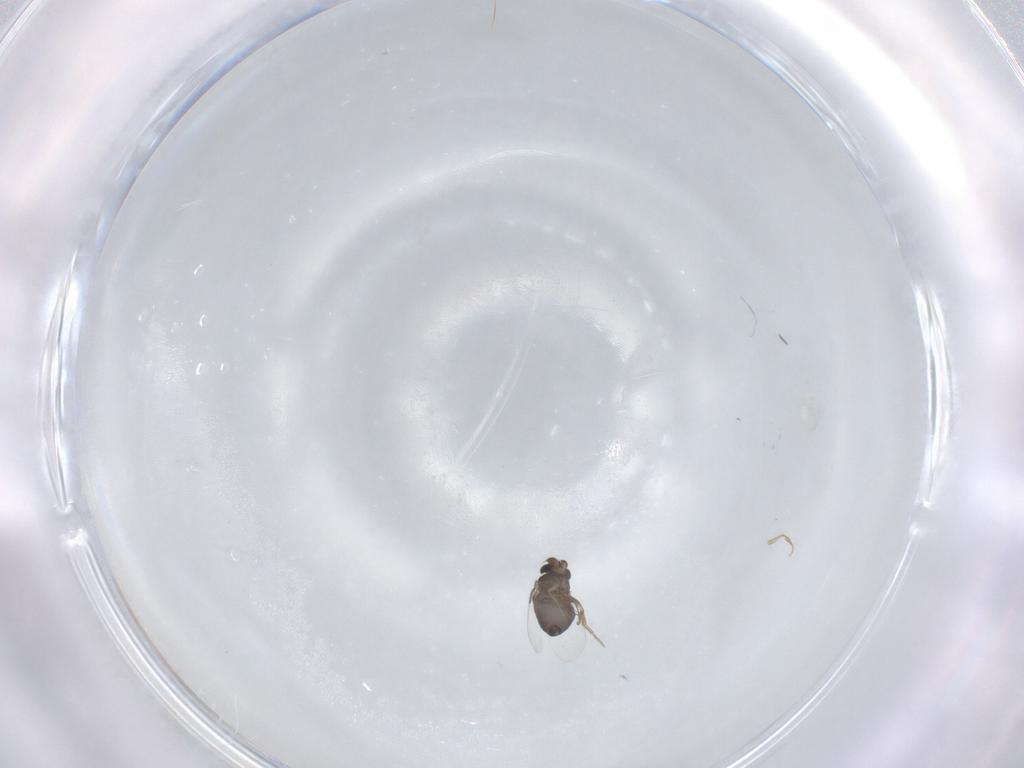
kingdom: Animalia
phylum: Arthropoda
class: Insecta
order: Diptera
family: Phoridae
